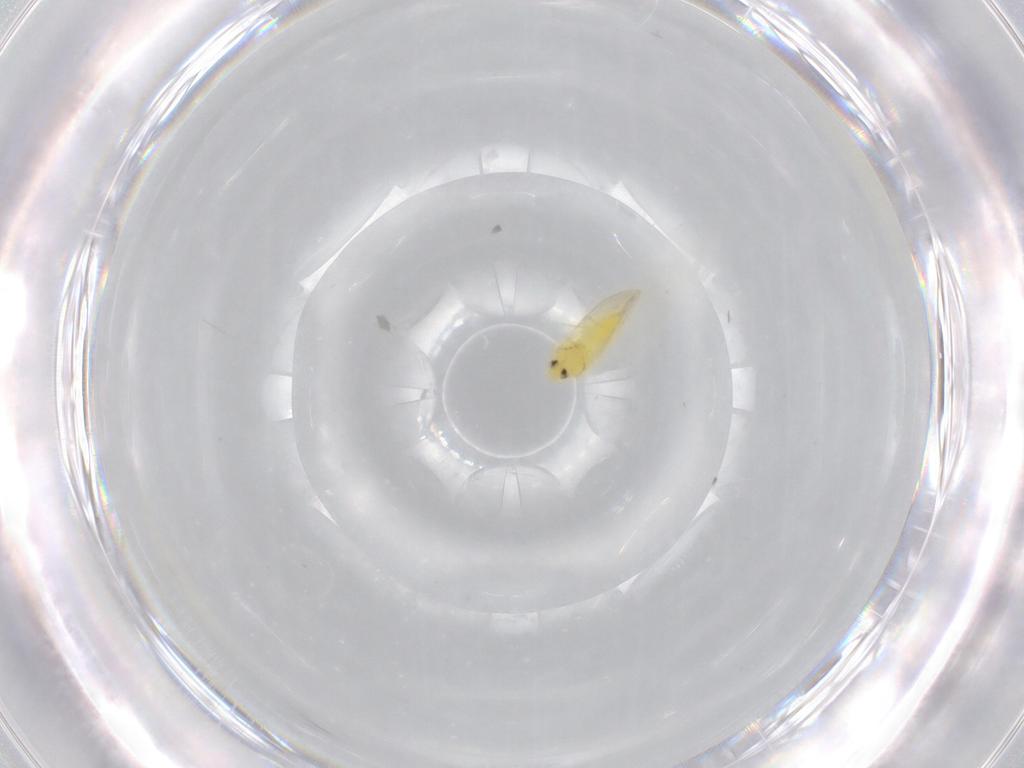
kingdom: Animalia
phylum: Arthropoda
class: Insecta
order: Hemiptera
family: Aleyrodidae
